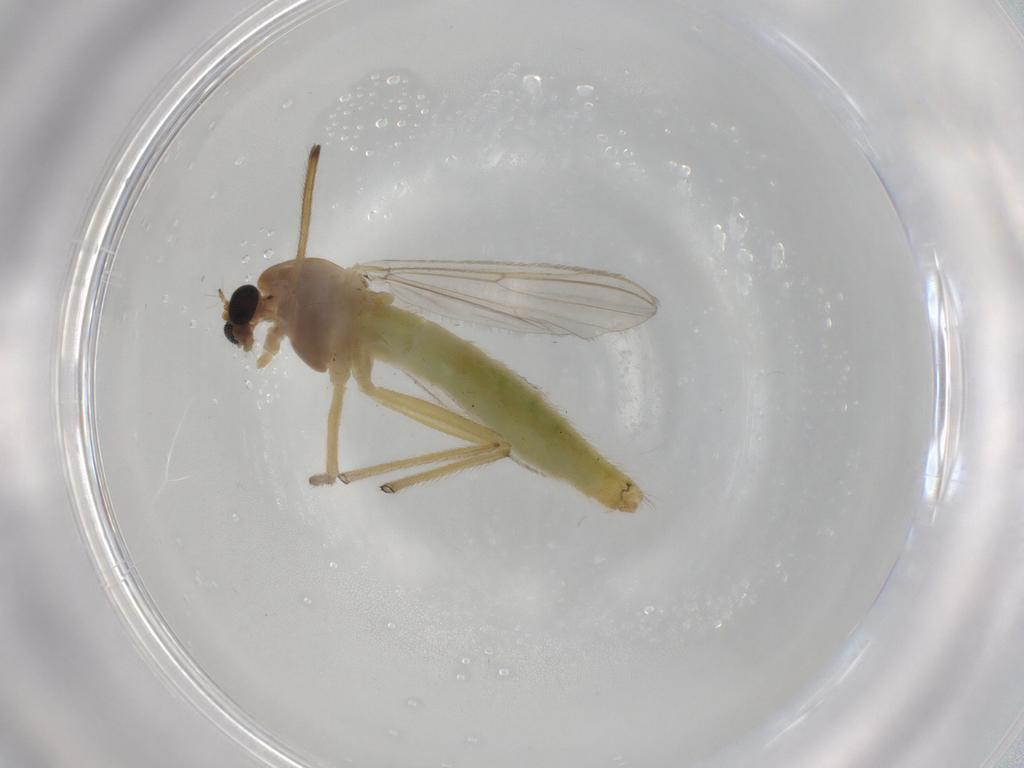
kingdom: Animalia
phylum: Arthropoda
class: Insecta
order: Diptera
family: Chironomidae
